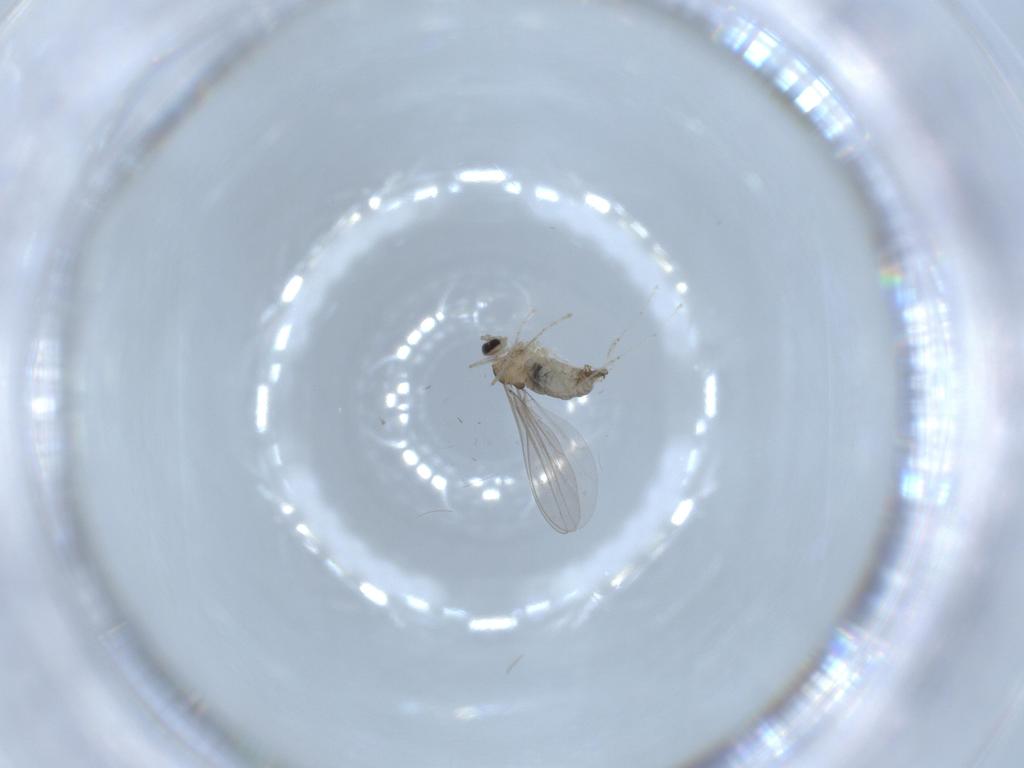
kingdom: Animalia
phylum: Arthropoda
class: Insecta
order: Diptera
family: Cecidomyiidae
